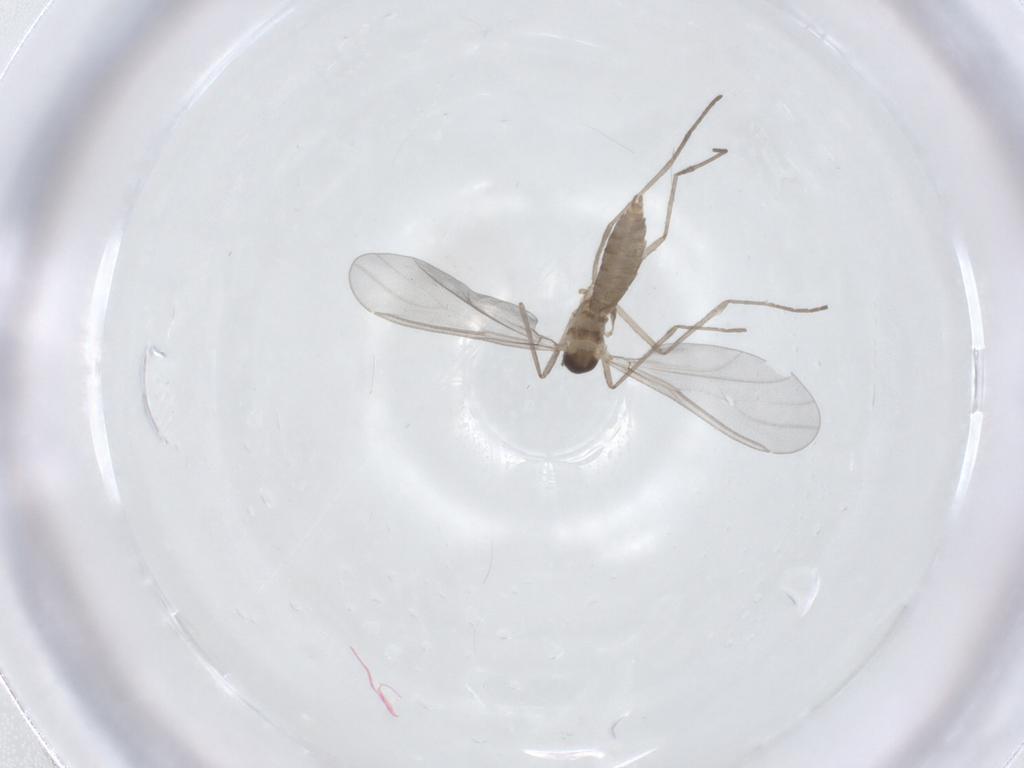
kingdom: Animalia
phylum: Arthropoda
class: Insecta
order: Diptera
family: Cecidomyiidae
